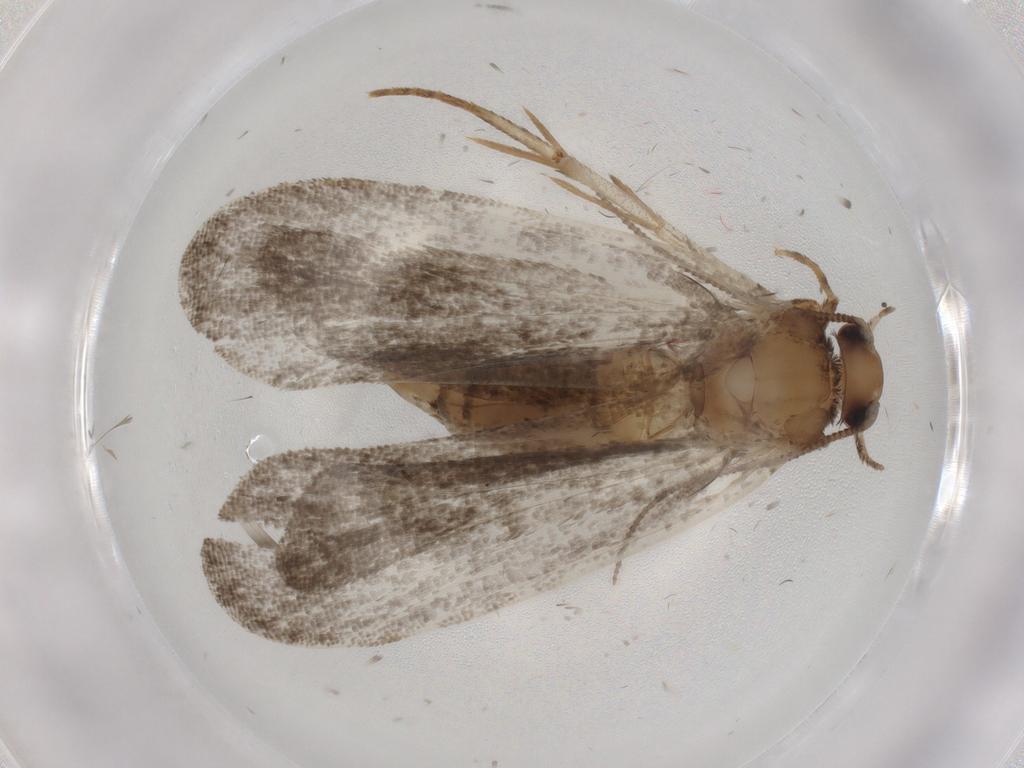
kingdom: Animalia
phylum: Arthropoda
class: Insecta
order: Lepidoptera
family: Tineidae
